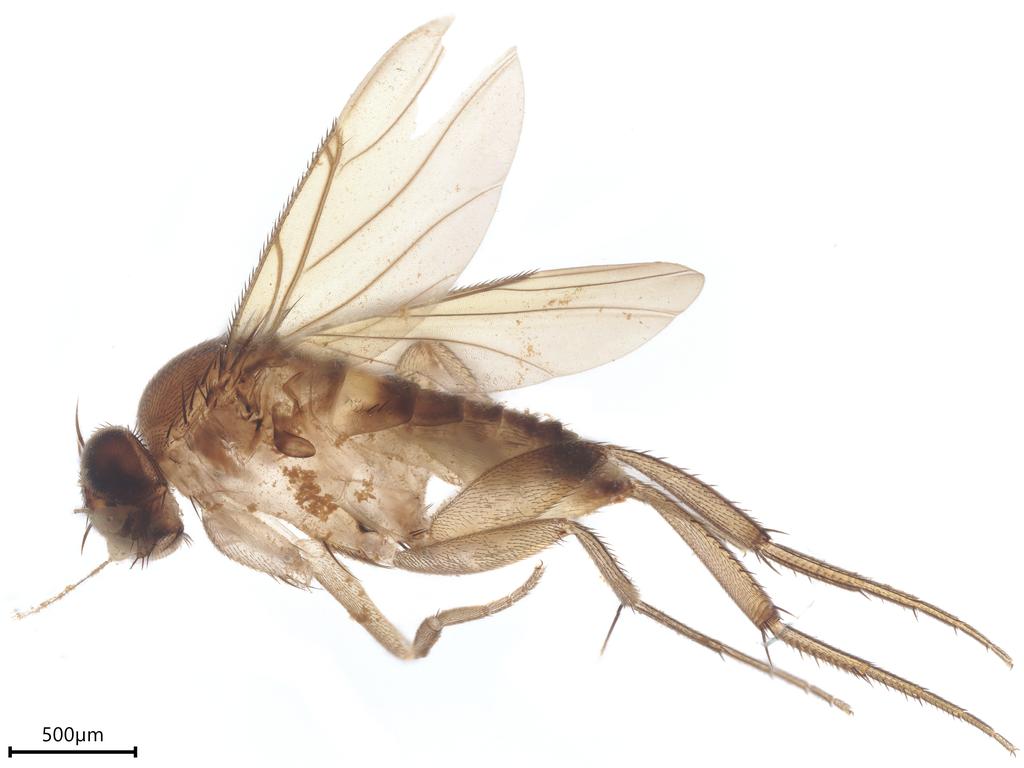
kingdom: Animalia
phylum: Arthropoda
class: Insecta
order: Diptera
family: Phoridae
